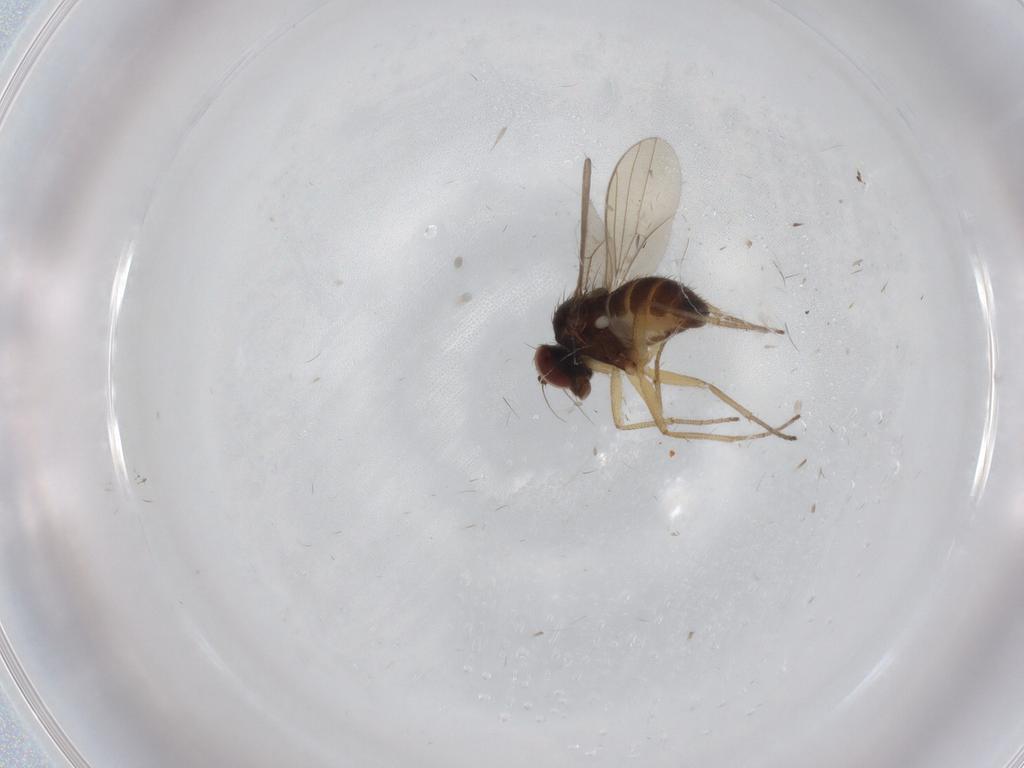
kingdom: Animalia
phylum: Arthropoda
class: Insecta
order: Diptera
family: Dolichopodidae
